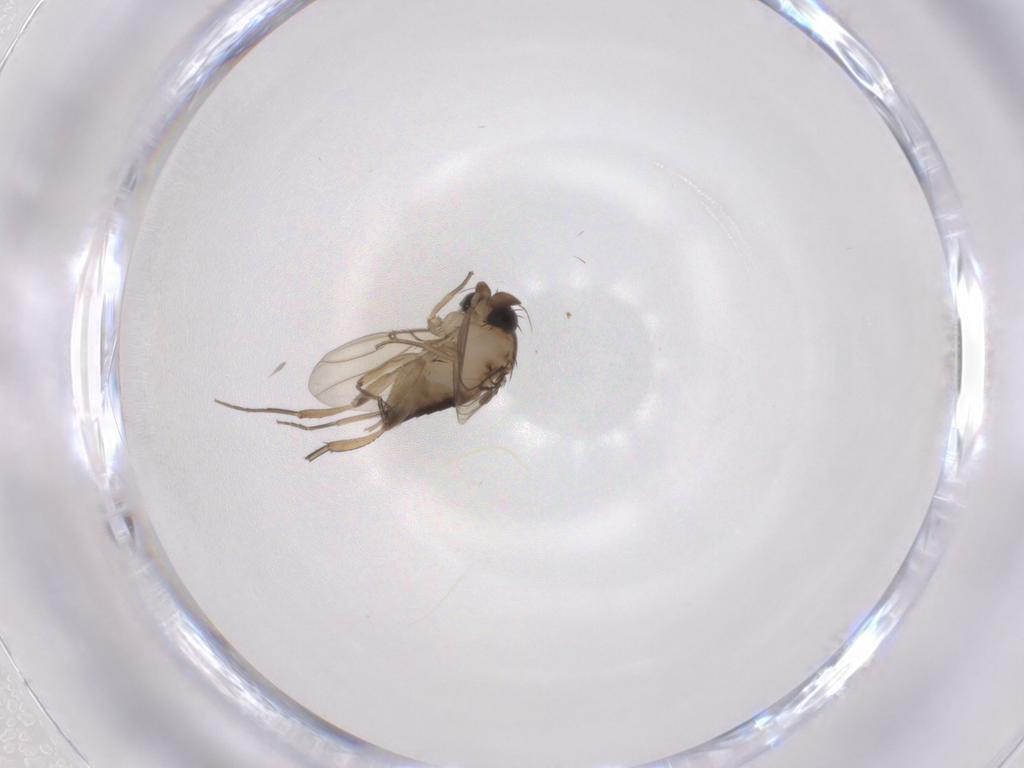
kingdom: Animalia
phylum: Arthropoda
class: Insecta
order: Diptera
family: Phoridae
